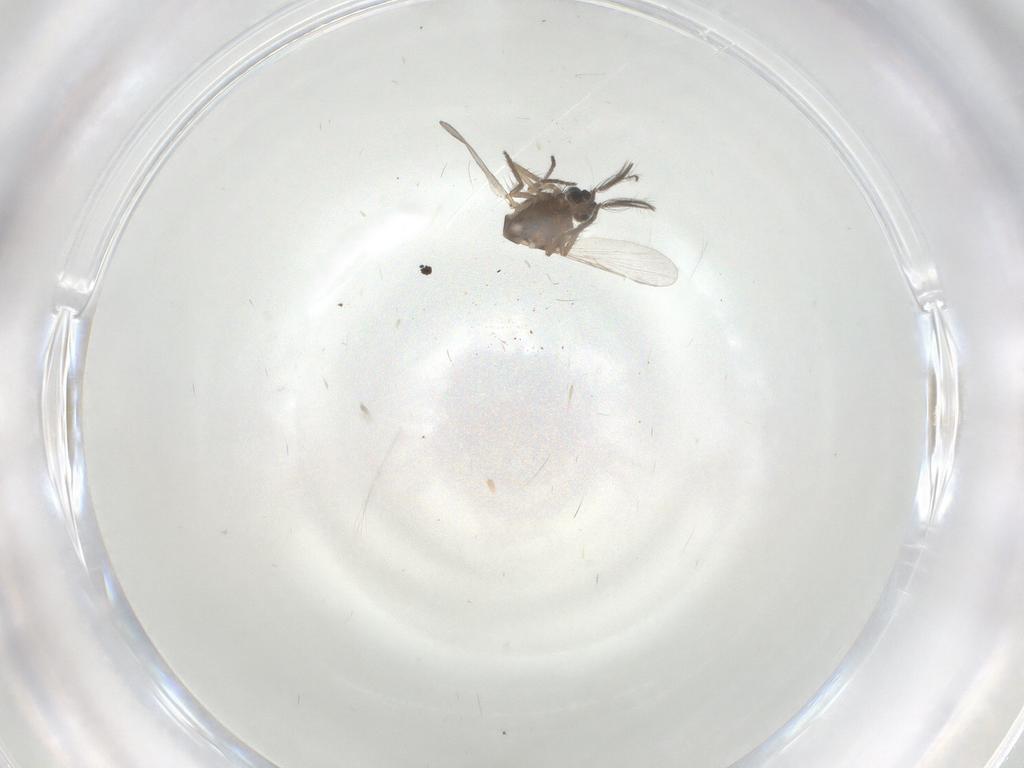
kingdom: Animalia
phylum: Arthropoda
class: Insecta
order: Diptera
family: Ceratopogonidae
